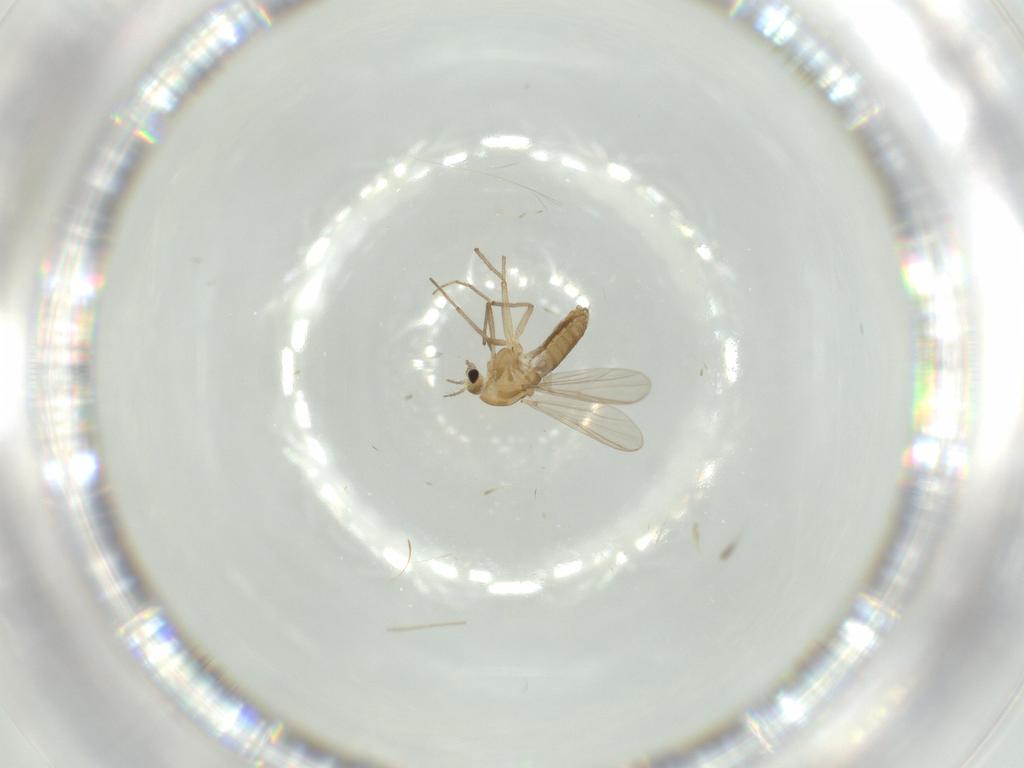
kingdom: Animalia
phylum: Arthropoda
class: Insecta
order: Diptera
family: Chironomidae
